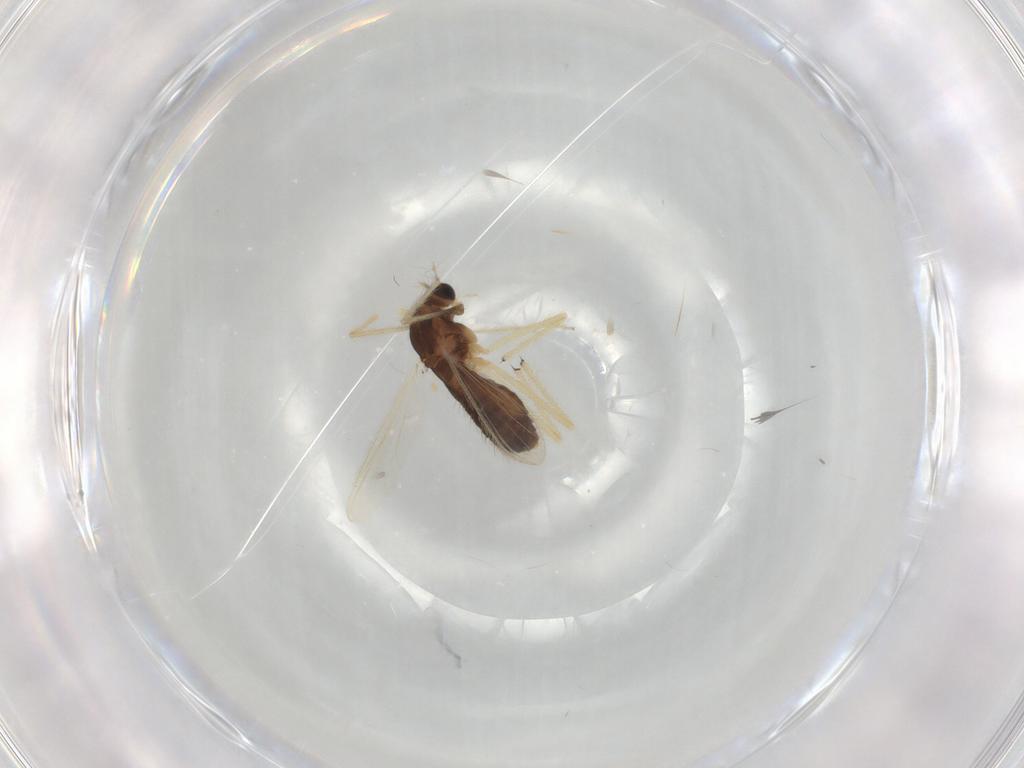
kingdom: Animalia
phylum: Arthropoda
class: Insecta
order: Diptera
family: Chironomidae
